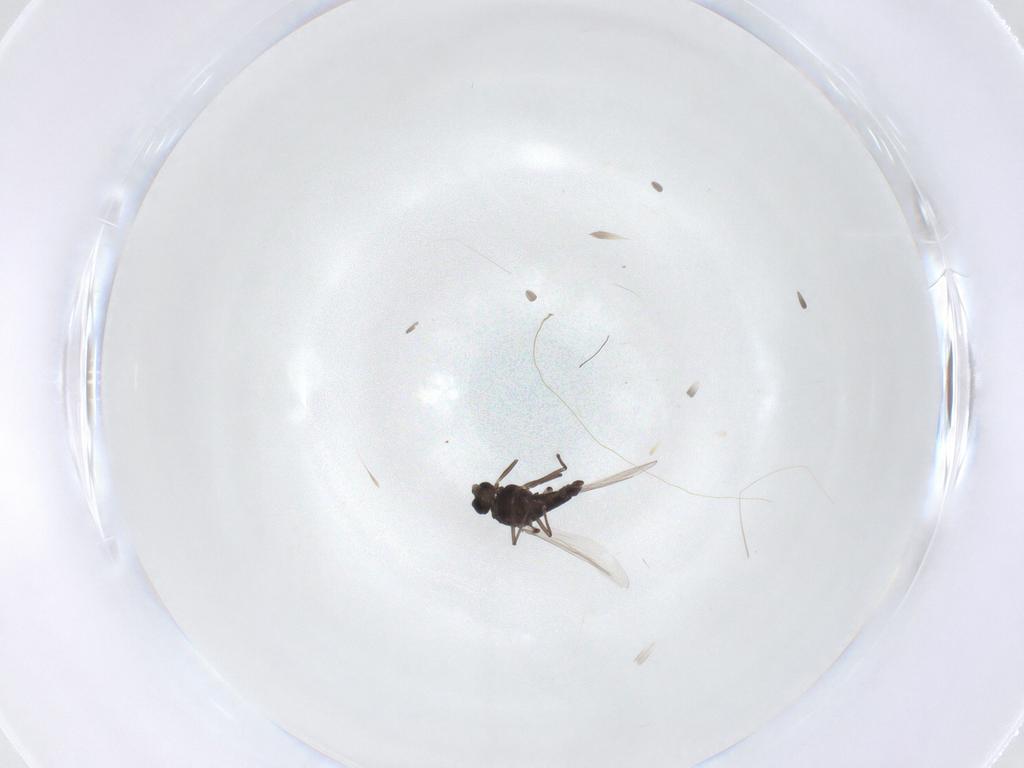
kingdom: Animalia
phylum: Arthropoda
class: Insecta
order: Diptera
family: Chironomidae
